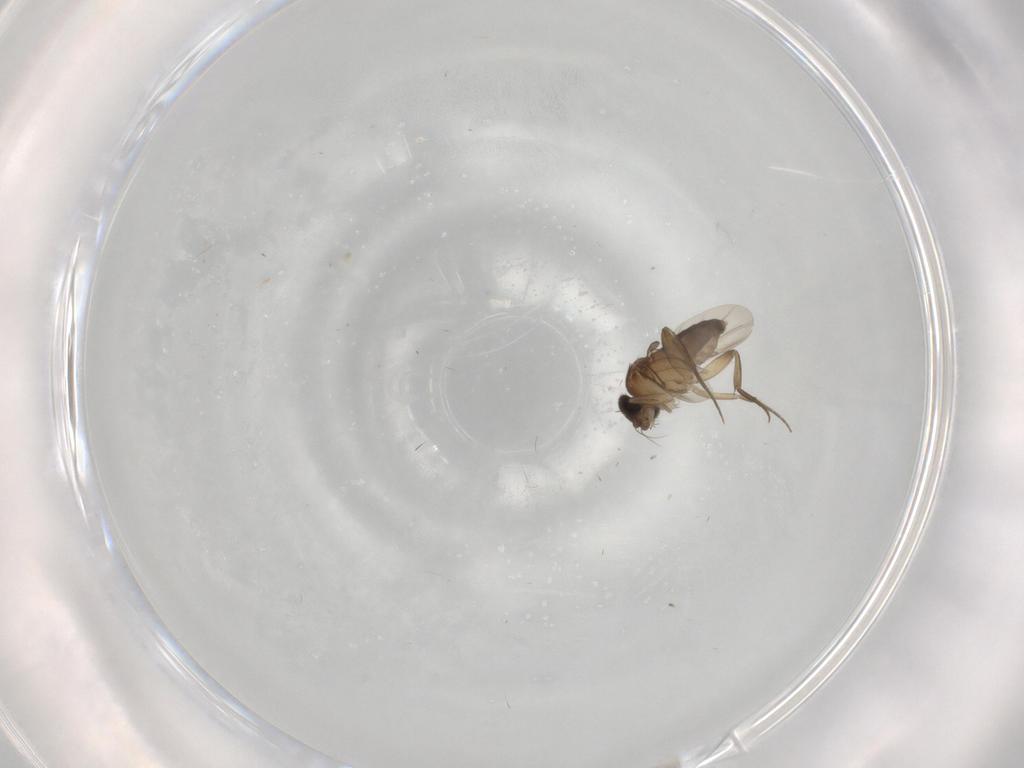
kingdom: Animalia
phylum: Arthropoda
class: Insecta
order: Diptera
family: Phoridae
